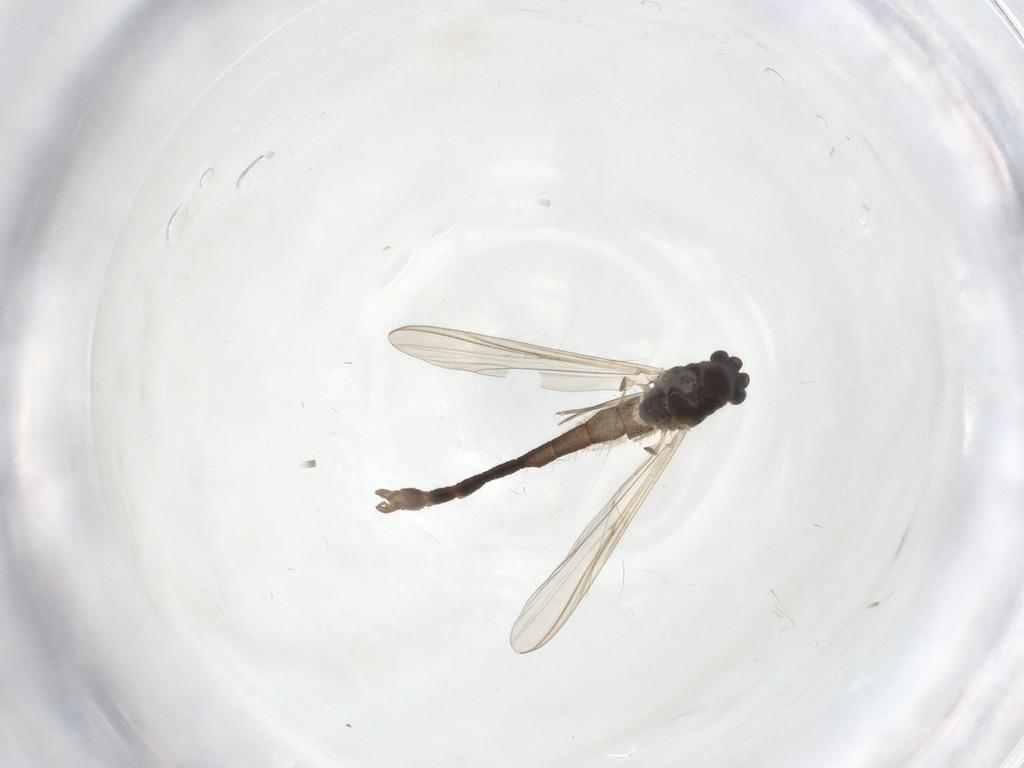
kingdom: Animalia
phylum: Arthropoda
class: Insecta
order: Diptera
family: Chironomidae
